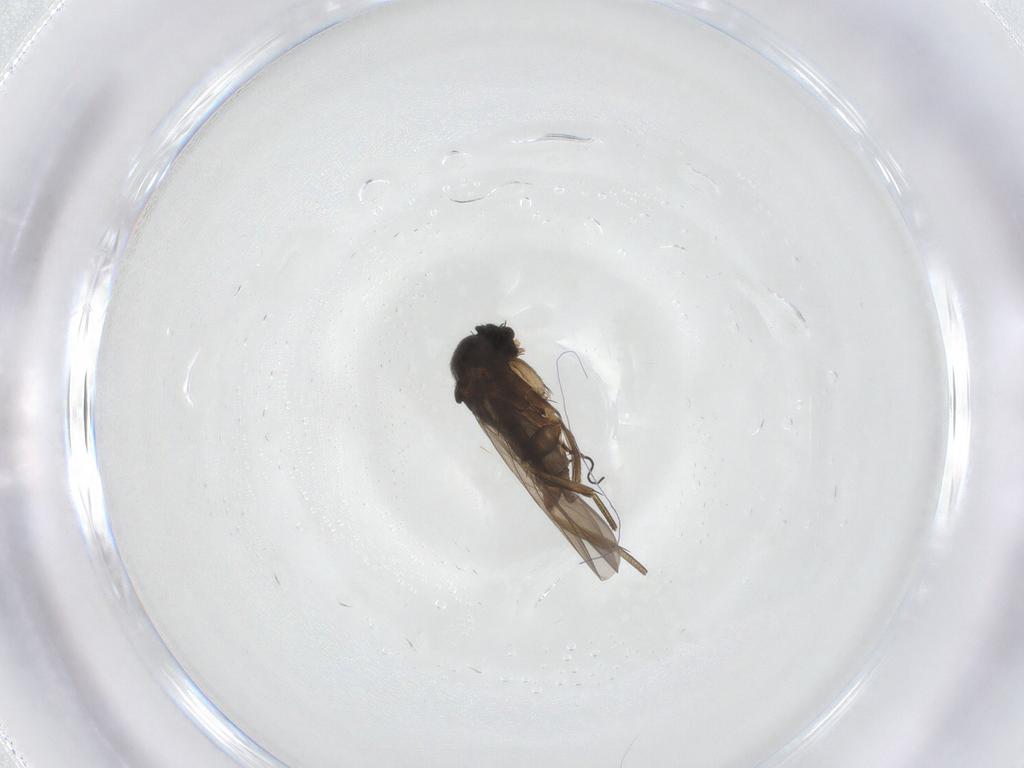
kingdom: Animalia
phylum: Arthropoda
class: Insecta
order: Diptera
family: Phoridae
